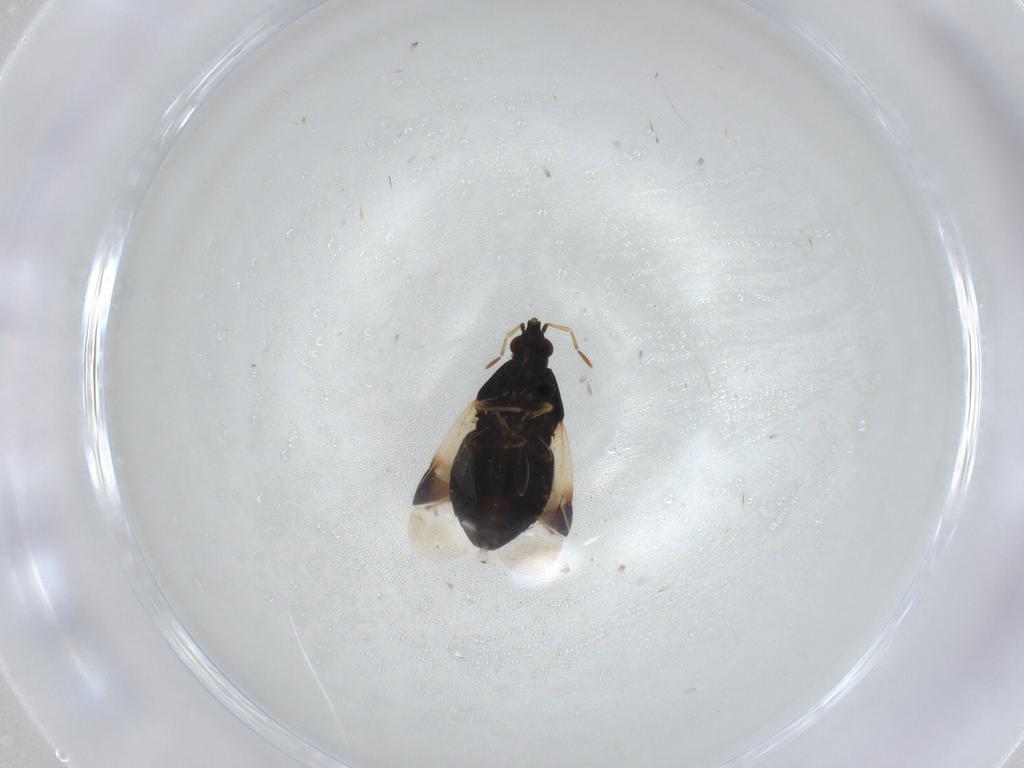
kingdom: Animalia
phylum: Arthropoda
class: Insecta
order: Hemiptera
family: Anthocoridae
